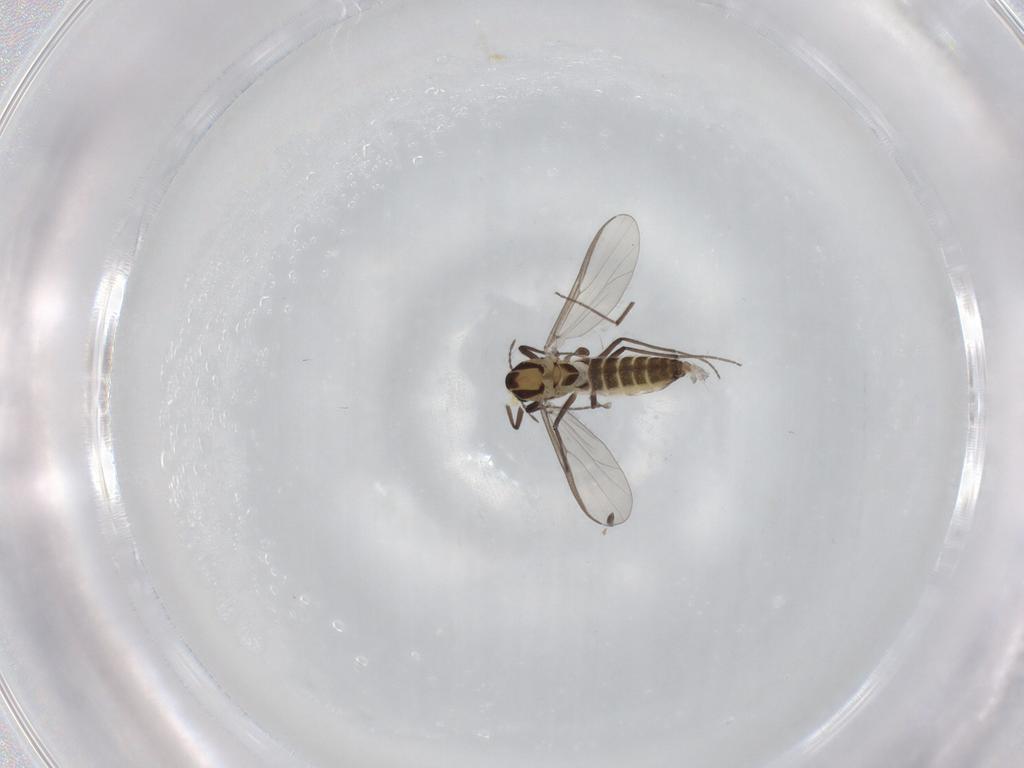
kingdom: Animalia
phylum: Arthropoda
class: Insecta
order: Diptera
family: Chironomidae
